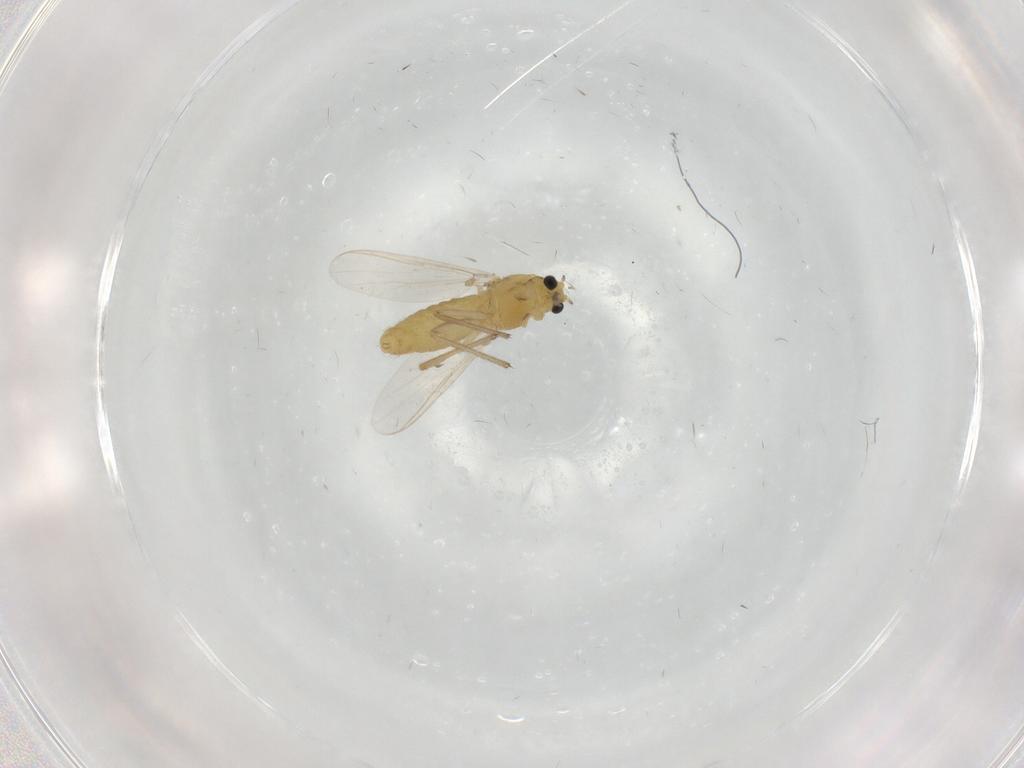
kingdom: Animalia
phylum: Arthropoda
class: Insecta
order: Diptera
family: Chironomidae
